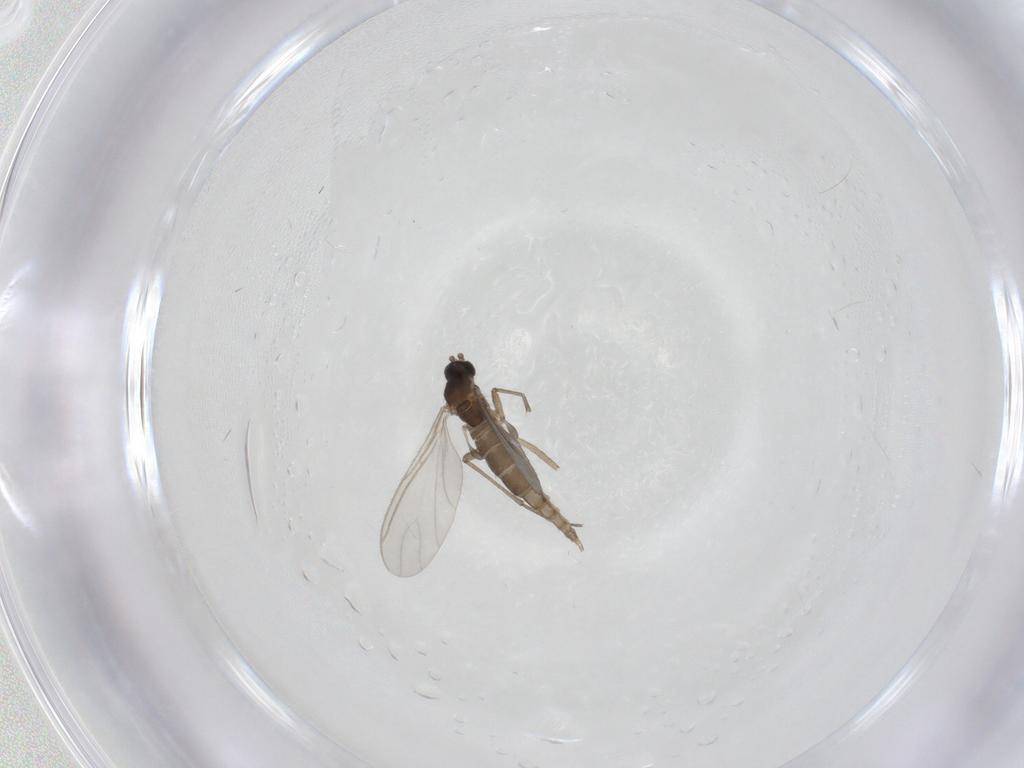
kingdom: Animalia
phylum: Arthropoda
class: Insecta
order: Diptera
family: Sciaridae
